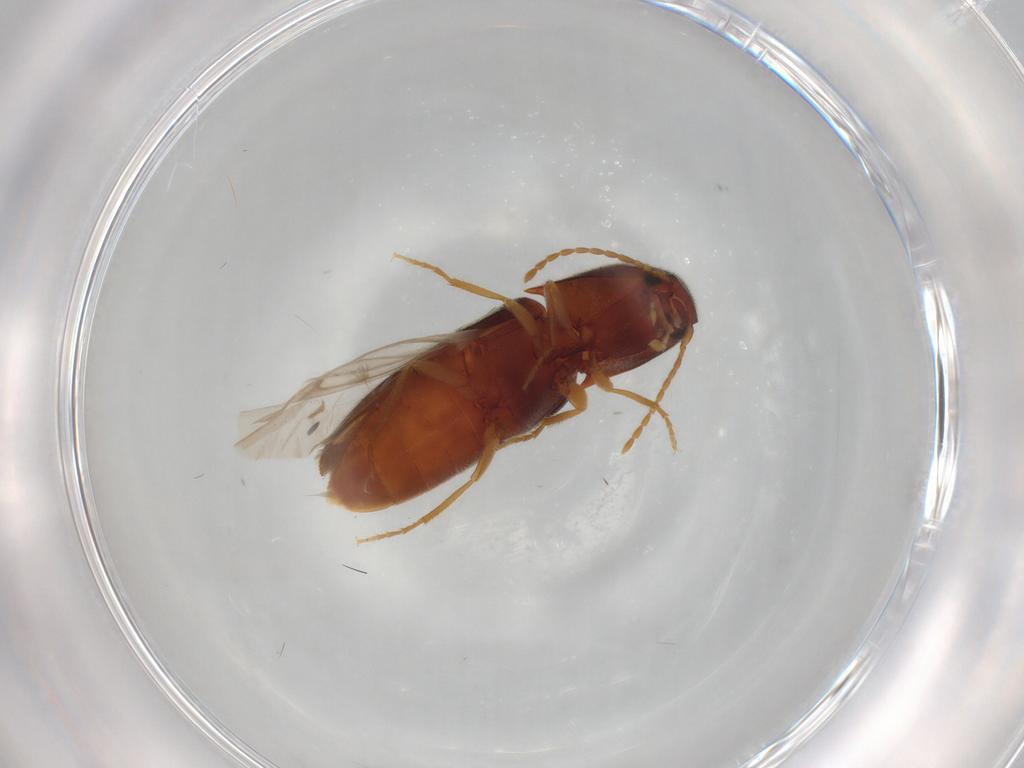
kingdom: Animalia
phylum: Arthropoda
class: Insecta
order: Coleoptera
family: Elateridae
